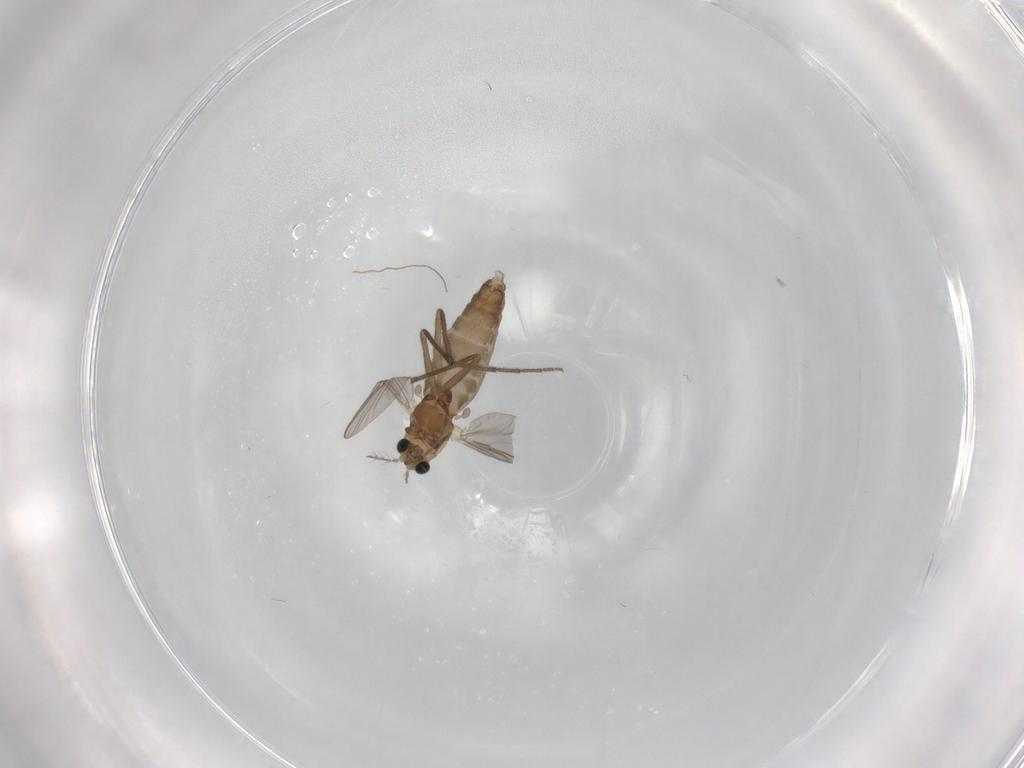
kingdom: Animalia
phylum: Arthropoda
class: Insecta
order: Diptera
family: Chironomidae
